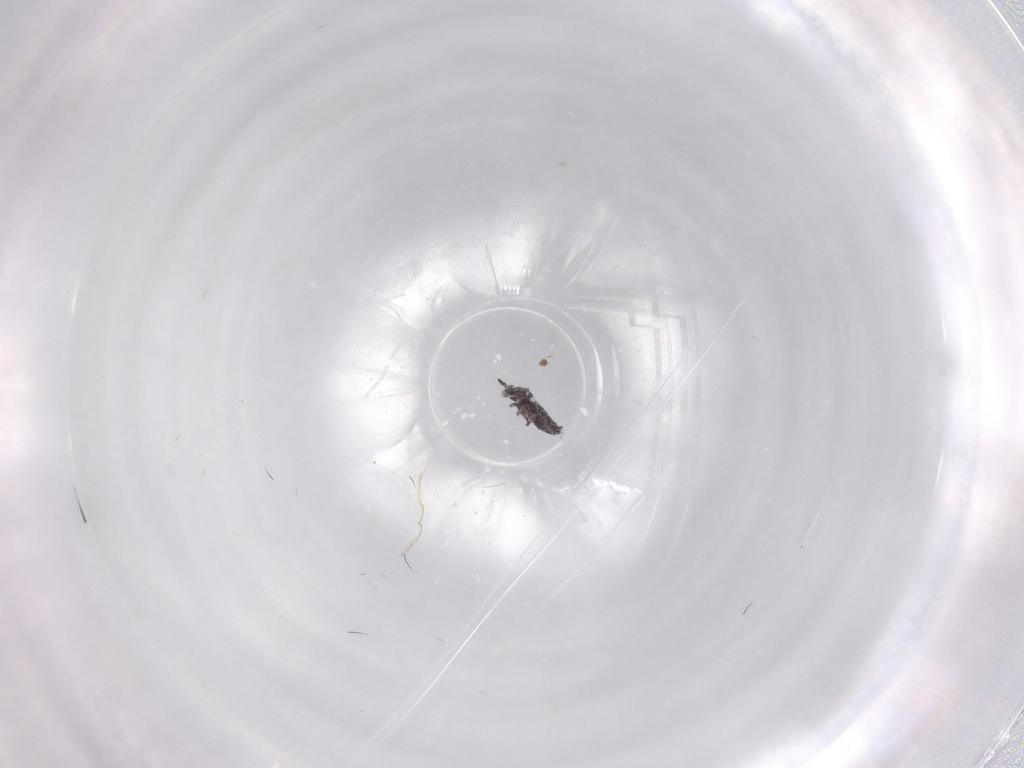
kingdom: Animalia
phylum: Arthropoda
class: Collembola
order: Poduromorpha
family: Hypogastruridae
